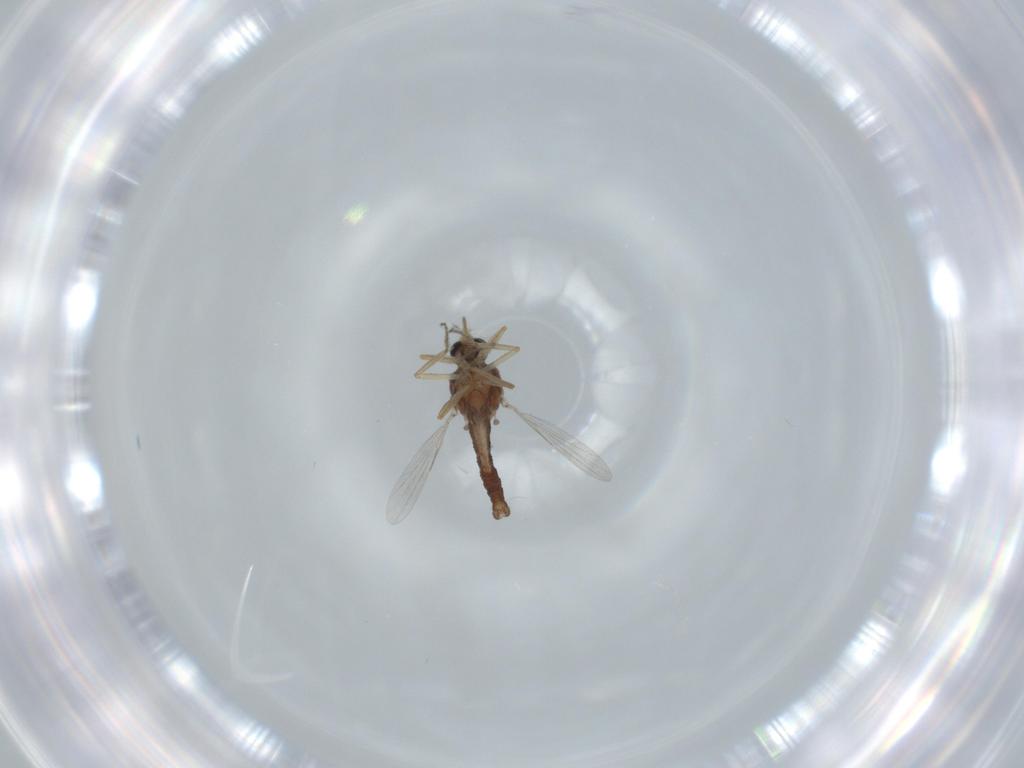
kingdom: Animalia
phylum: Arthropoda
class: Insecta
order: Diptera
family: Ceratopogonidae
